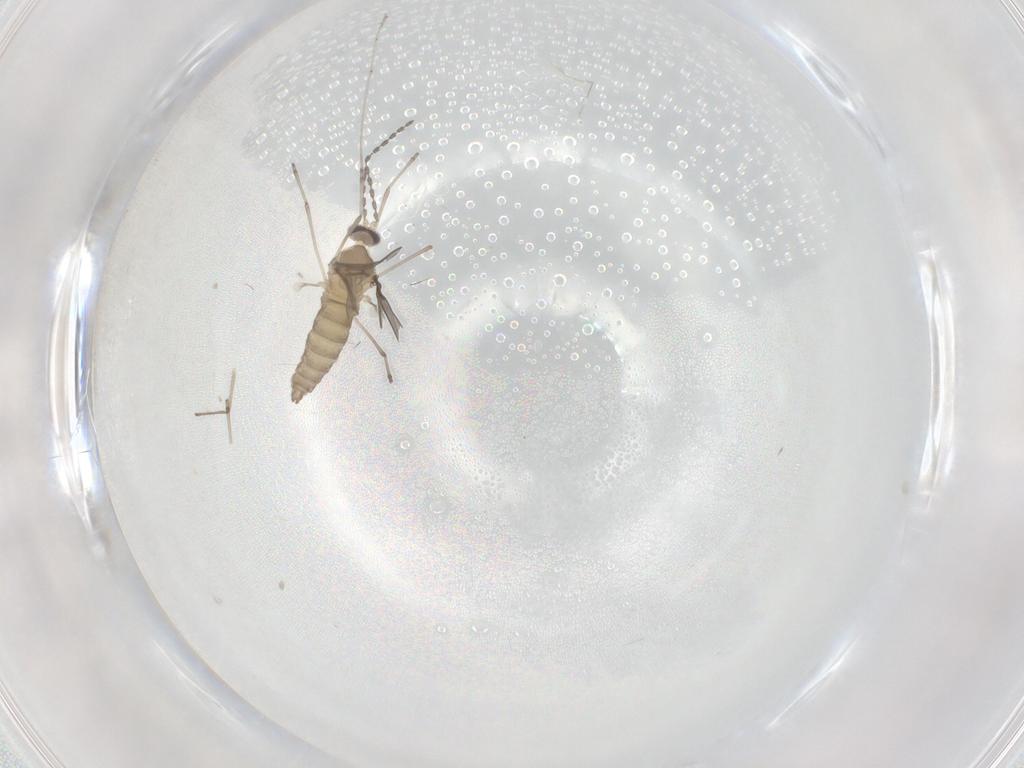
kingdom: Animalia
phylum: Arthropoda
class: Insecta
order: Diptera
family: Cecidomyiidae
